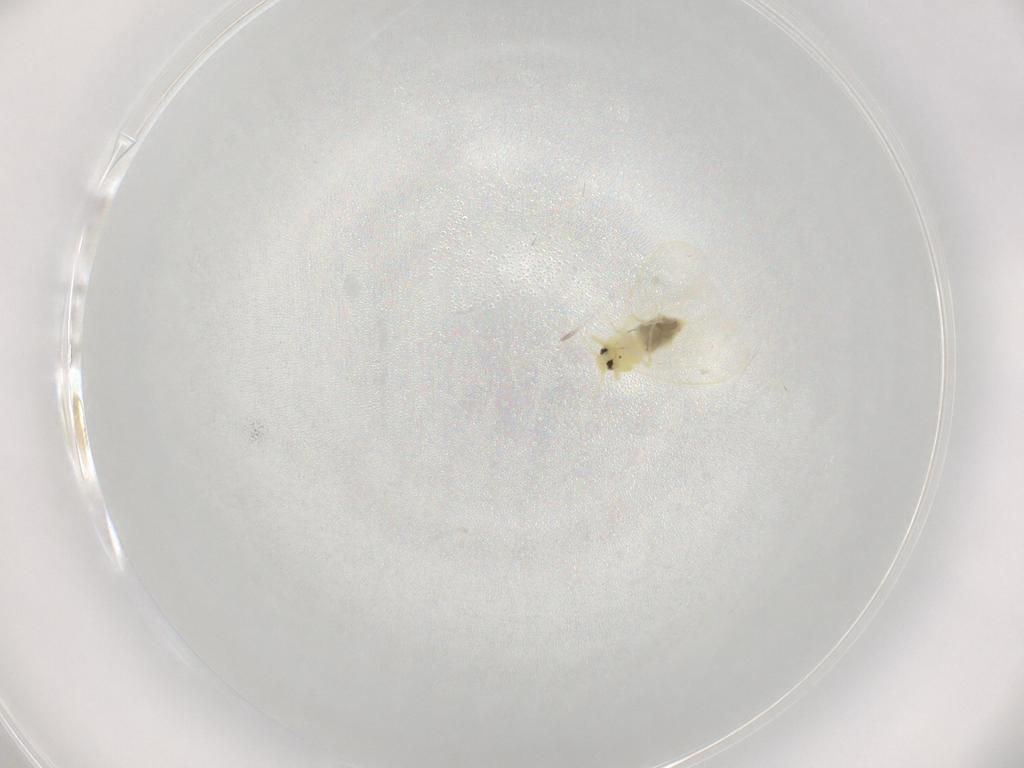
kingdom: Animalia
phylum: Arthropoda
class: Insecta
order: Hemiptera
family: Aleyrodidae
